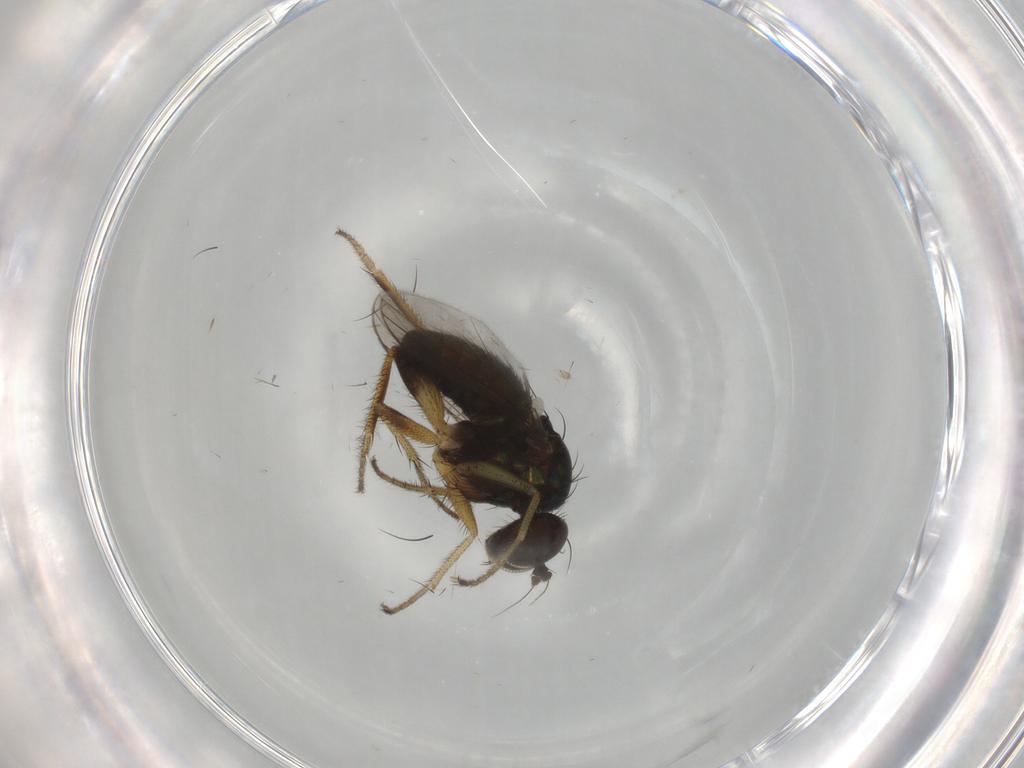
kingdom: Animalia
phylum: Arthropoda
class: Insecta
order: Diptera
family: Dolichopodidae
